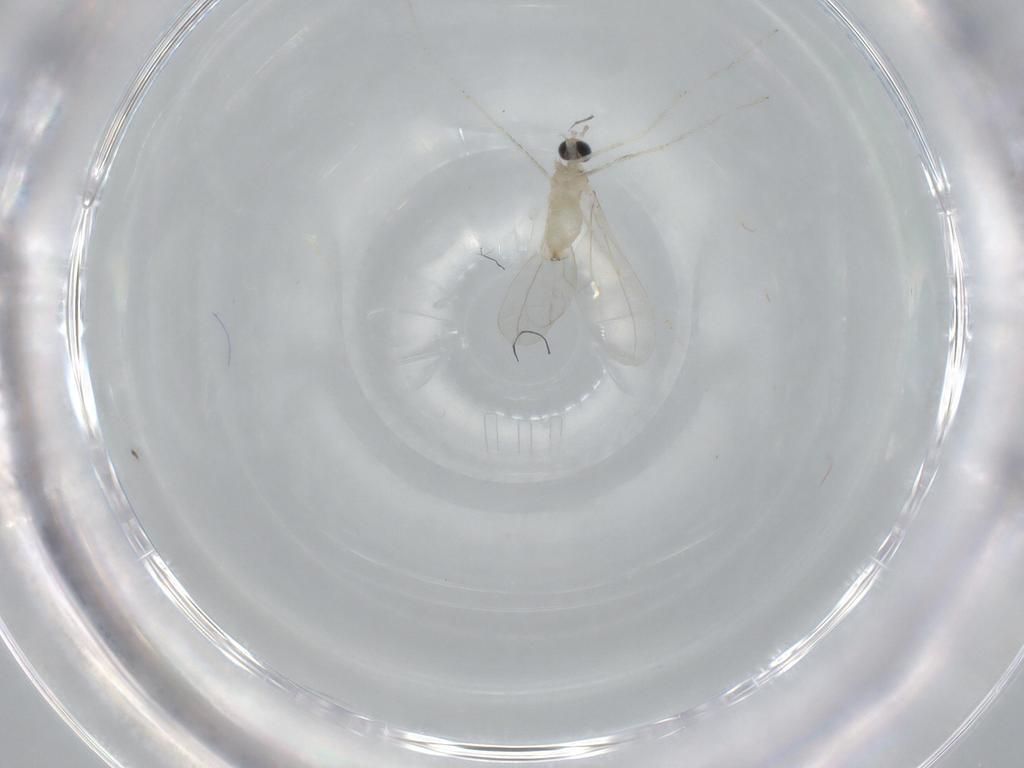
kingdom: Animalia
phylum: Arthropoda
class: Insecta
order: Diptera
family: Cecidomyiidae
